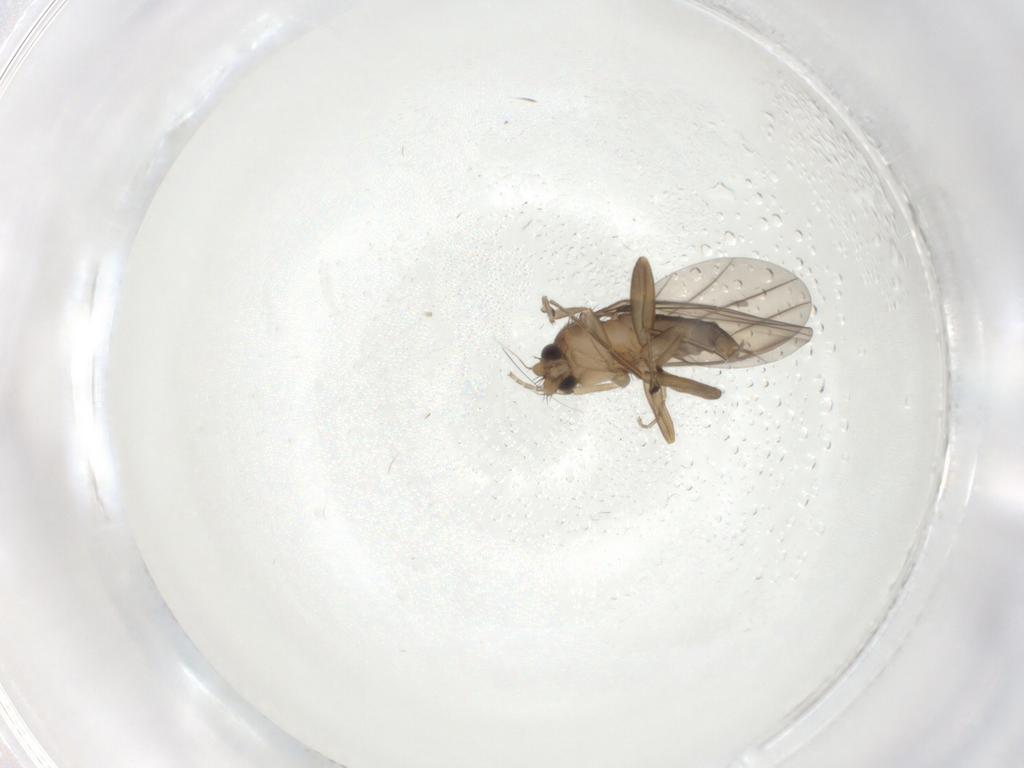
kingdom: Animalia
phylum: Arthropoda
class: Insecta
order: Diptera
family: Phoridae
